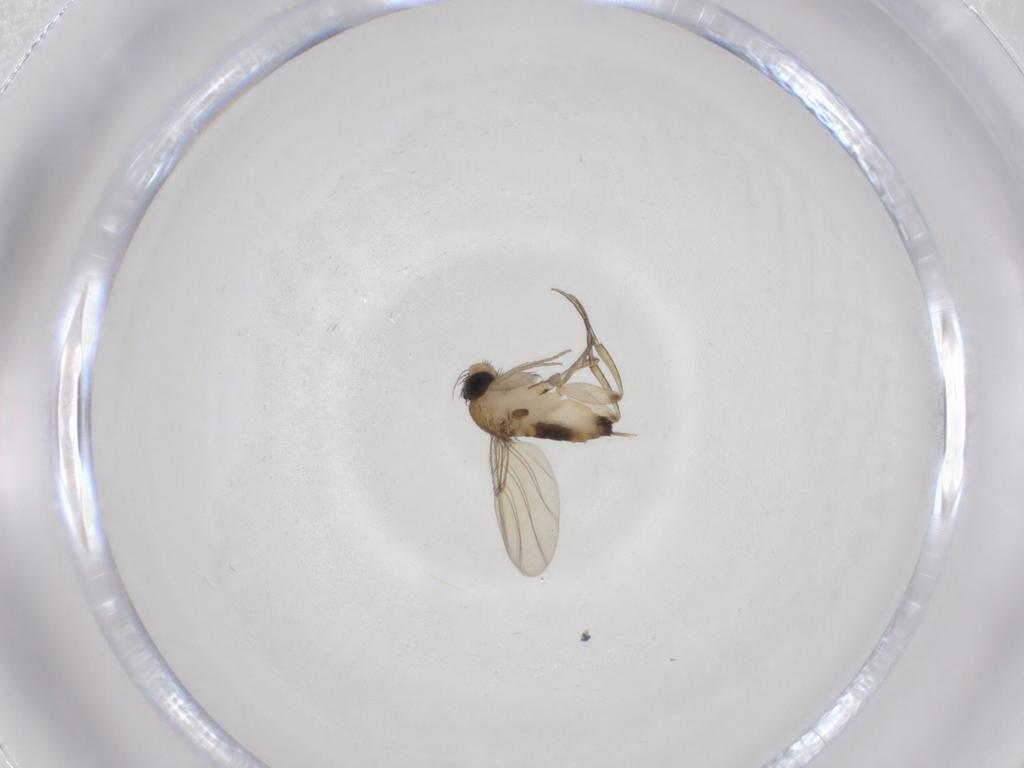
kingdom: Animalia
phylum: Arthropoda
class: Insecta
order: Diptera
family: Phoridae
